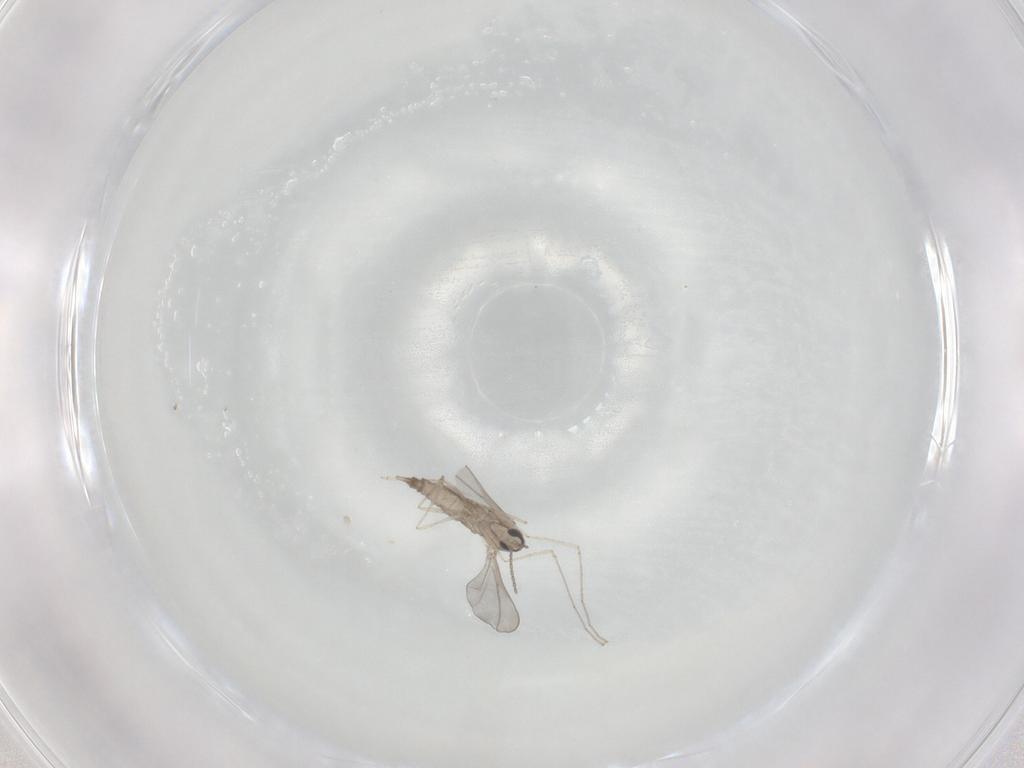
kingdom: Animalia
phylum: Arthropoda
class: Insecta
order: Diptera
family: Cecidomyiidae
